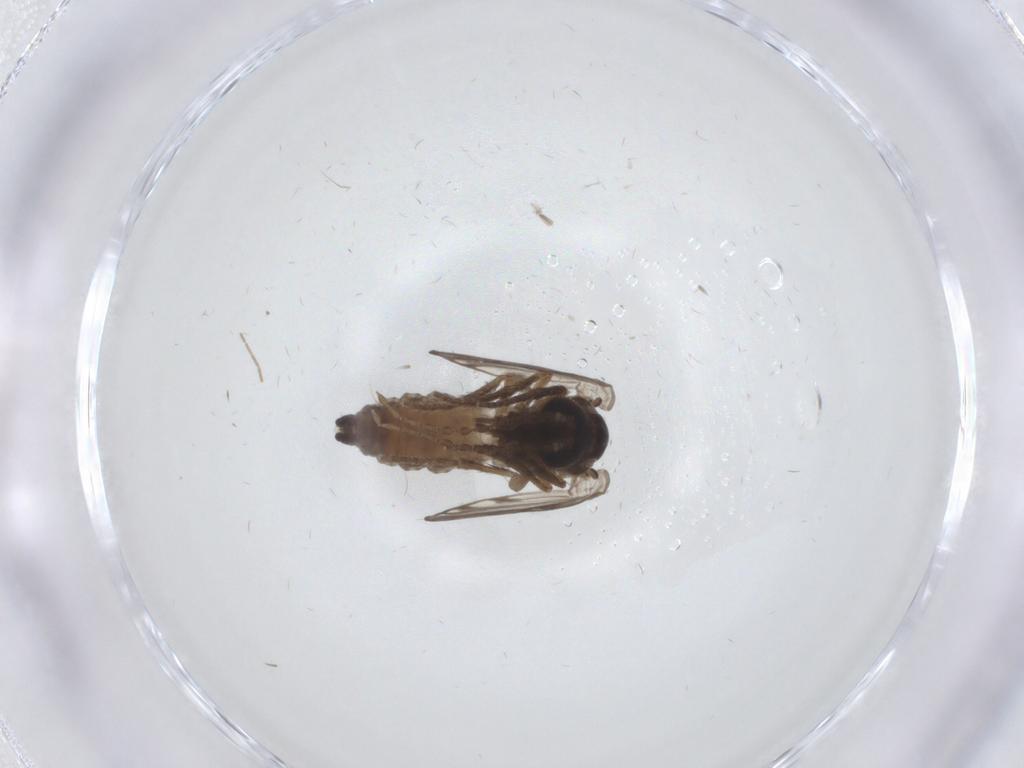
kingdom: Animalia
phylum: Arthropoda
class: Insecta
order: Diptera
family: Psychodidae
